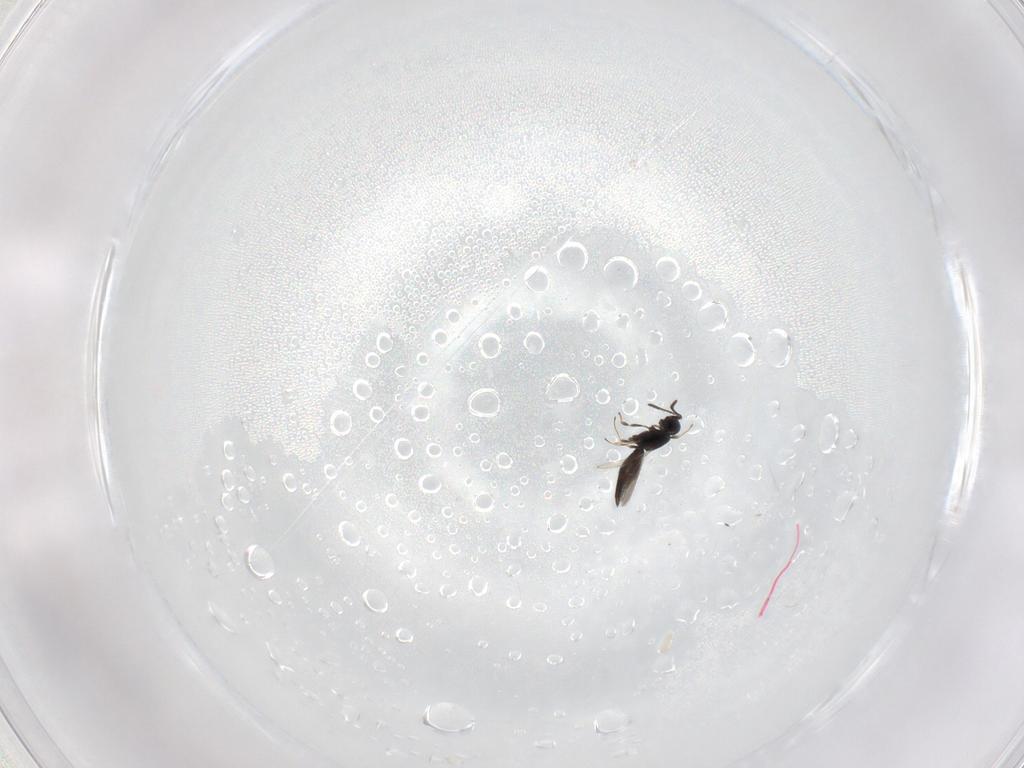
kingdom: Animalia
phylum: Arthropoda
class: Insecta
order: Hymenoptera
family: Scelionidae
